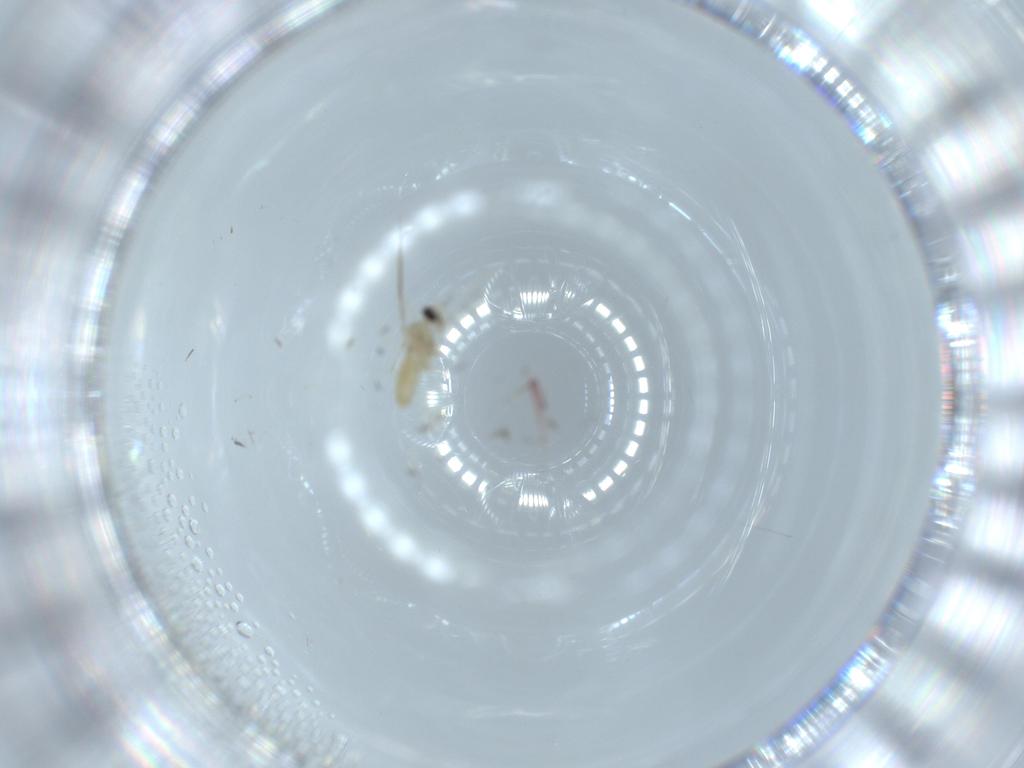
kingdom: Animalia
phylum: Arthropoda
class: Insecta
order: Diptera
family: Cecidomyiidae
